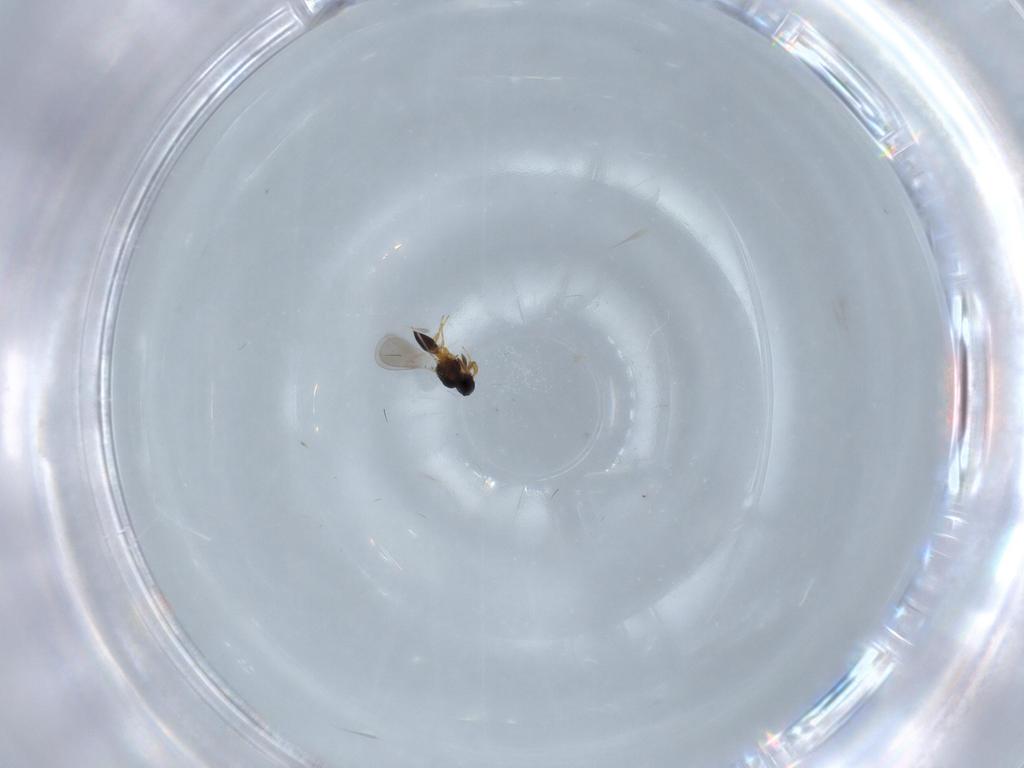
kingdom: Animalia
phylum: Arthropoda
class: Insecta
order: Hymenoptera
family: Platygastridae
